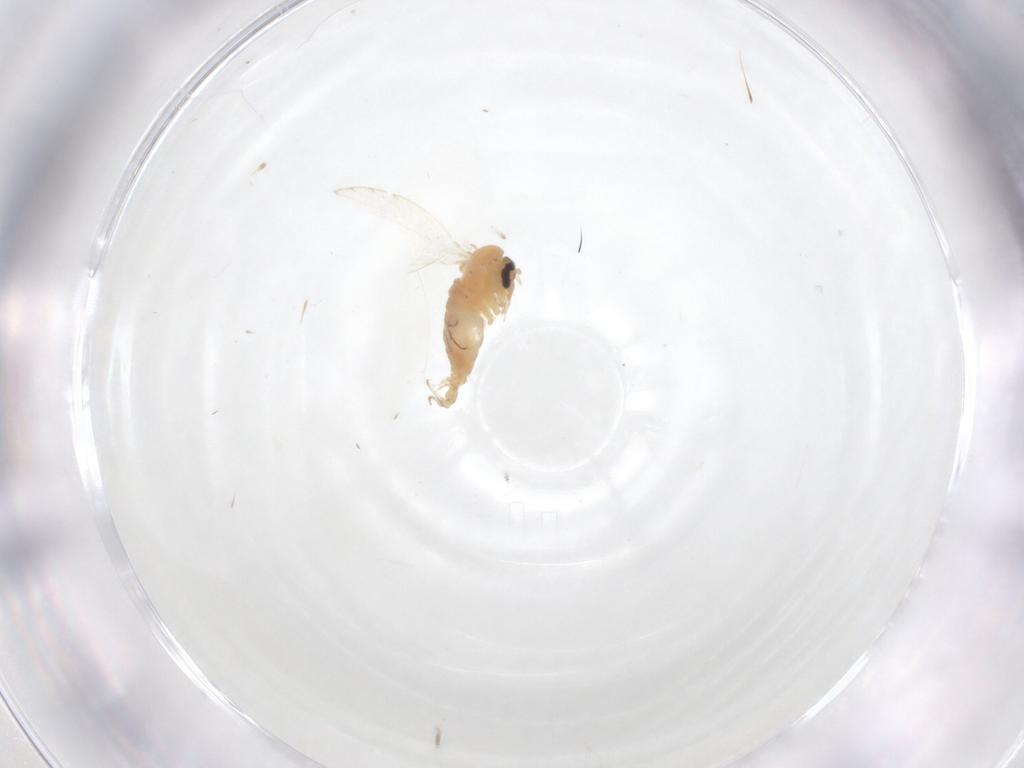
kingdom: Animalia
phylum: Arthropoda
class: Insecta
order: Diptera
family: Psychodidae
